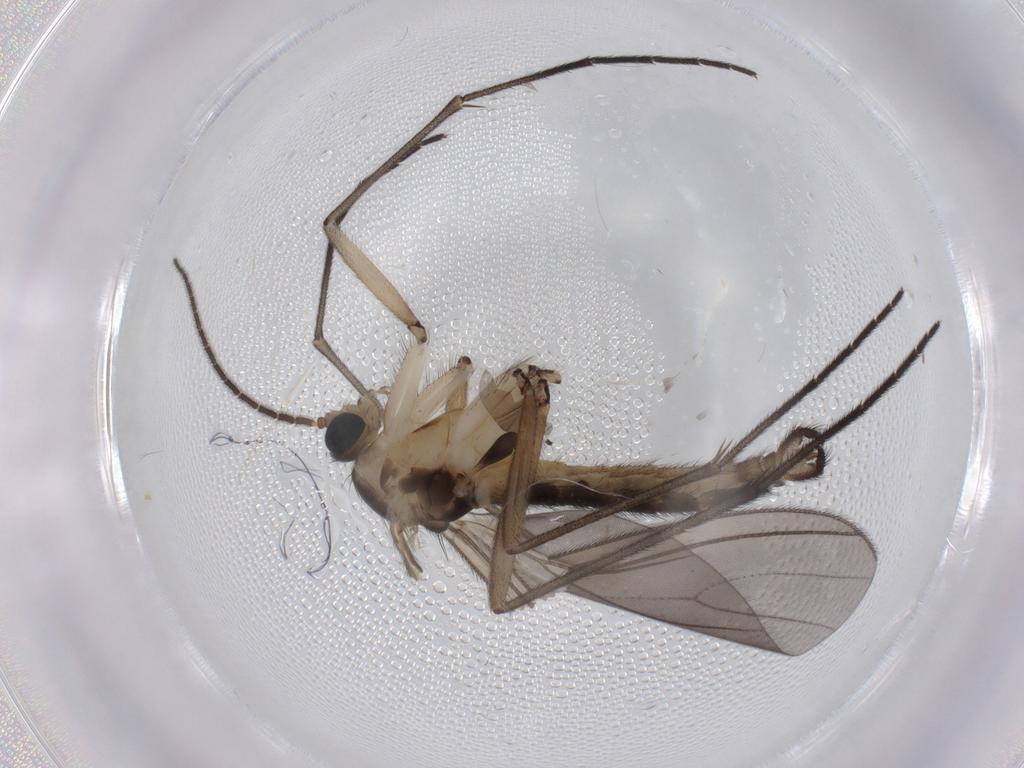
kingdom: Animalia
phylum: Arthropoda
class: Insecta
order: Diptera
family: Sciaridae
